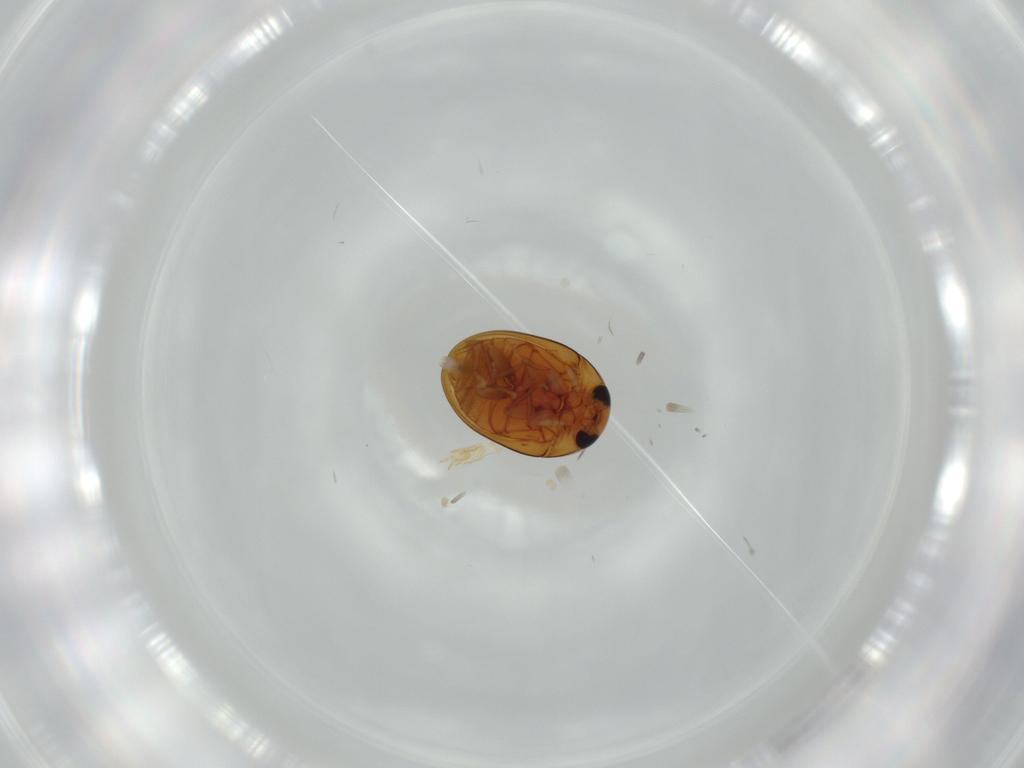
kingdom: Animalia
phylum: Arthropoda
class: Insecta
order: Coleoptera
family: Chrysomelidae
